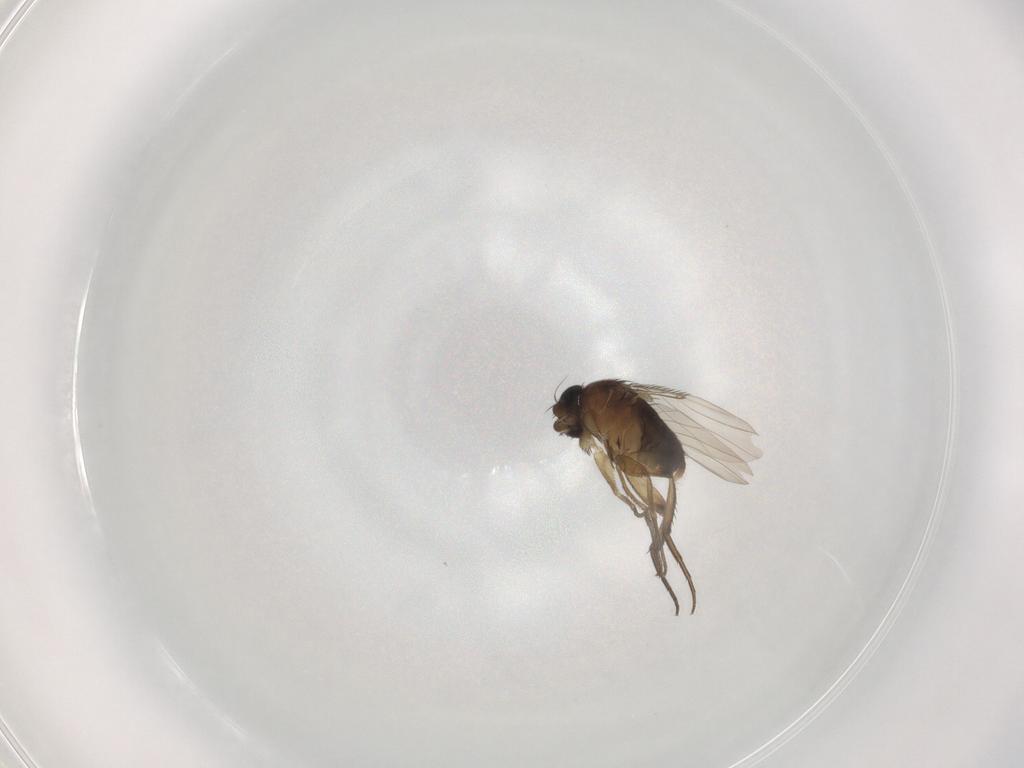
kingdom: Animalia
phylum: Arthropoda
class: Insecta
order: Diptera
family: Phoridae
